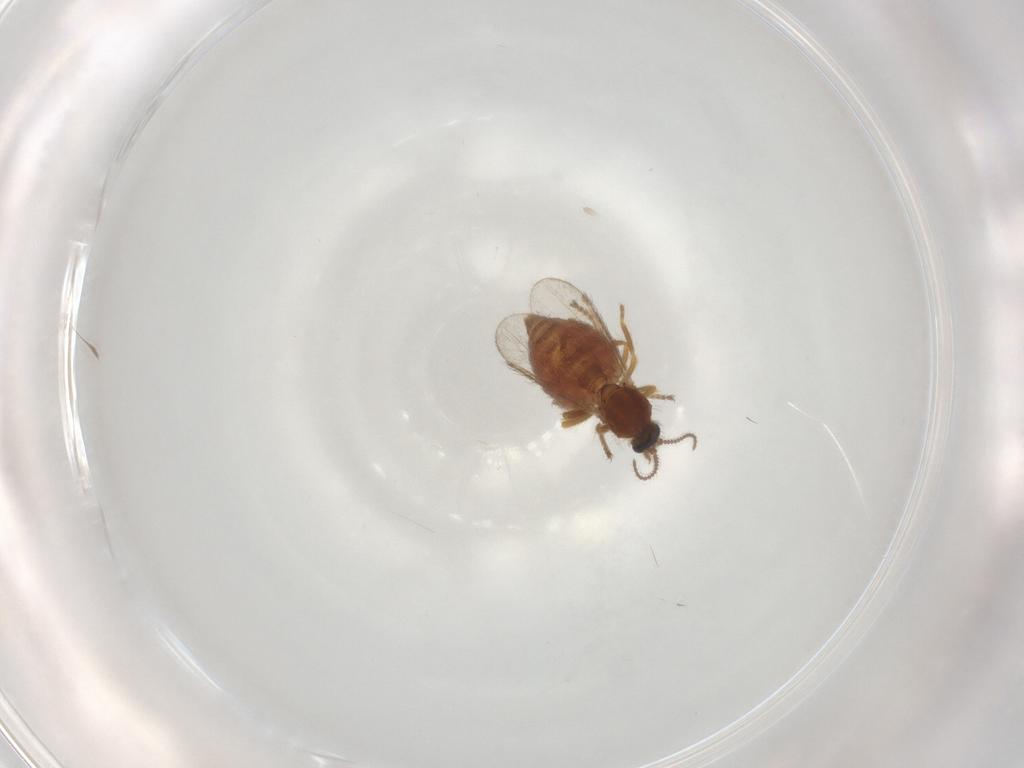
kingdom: Animalia
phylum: Arthropoda
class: Insecta
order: Diptera
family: Ceratopogonidae
